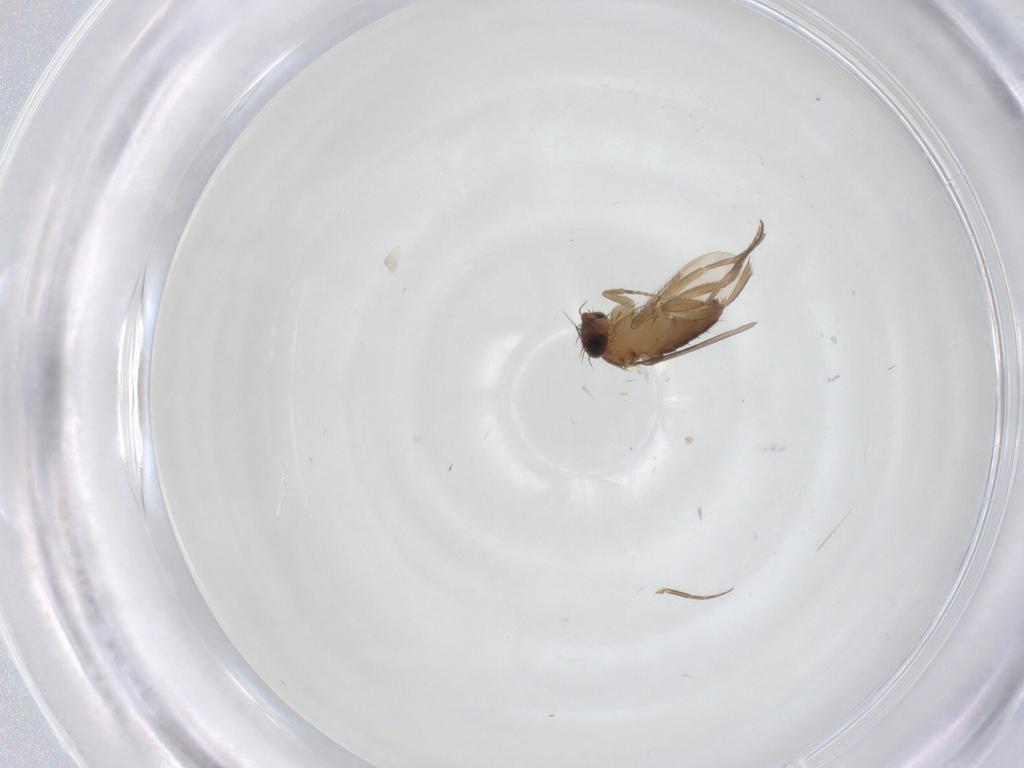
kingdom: Animalia
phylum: Arthropoda
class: Insecta
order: Diptera
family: Phoridae
